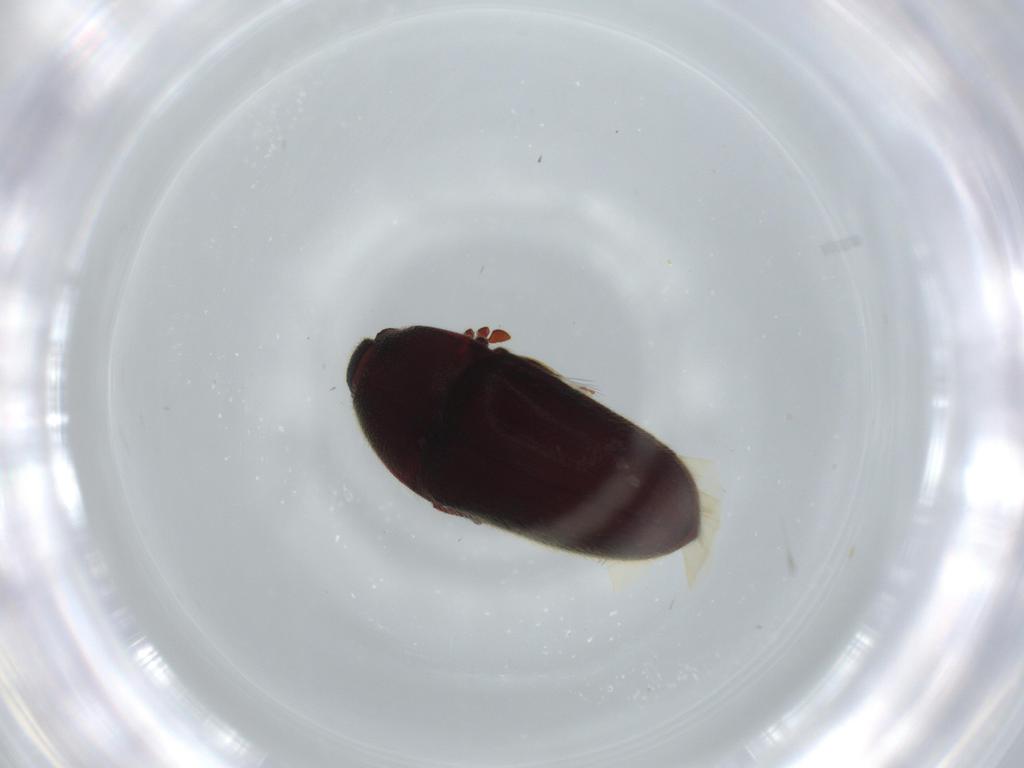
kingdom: Animalia
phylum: Arthropoda
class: Insecta
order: Coleoptera
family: Throscidae
